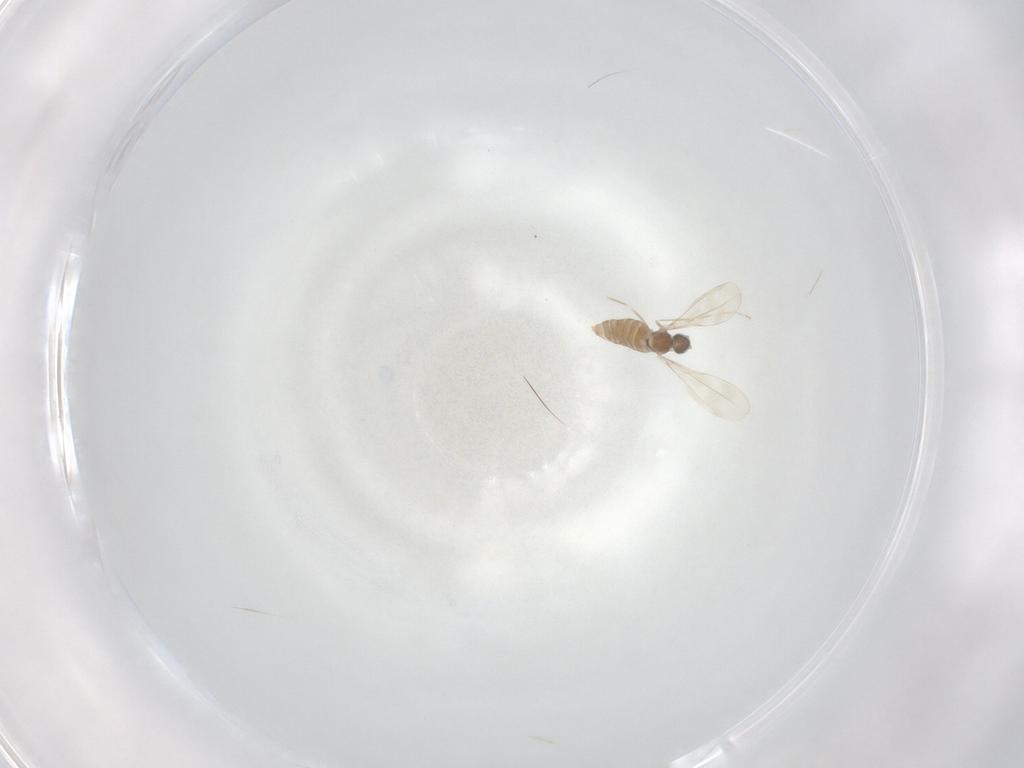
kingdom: Animalia
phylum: Arthropoda
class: Insecta
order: Diptera
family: Cecidomyiidae
